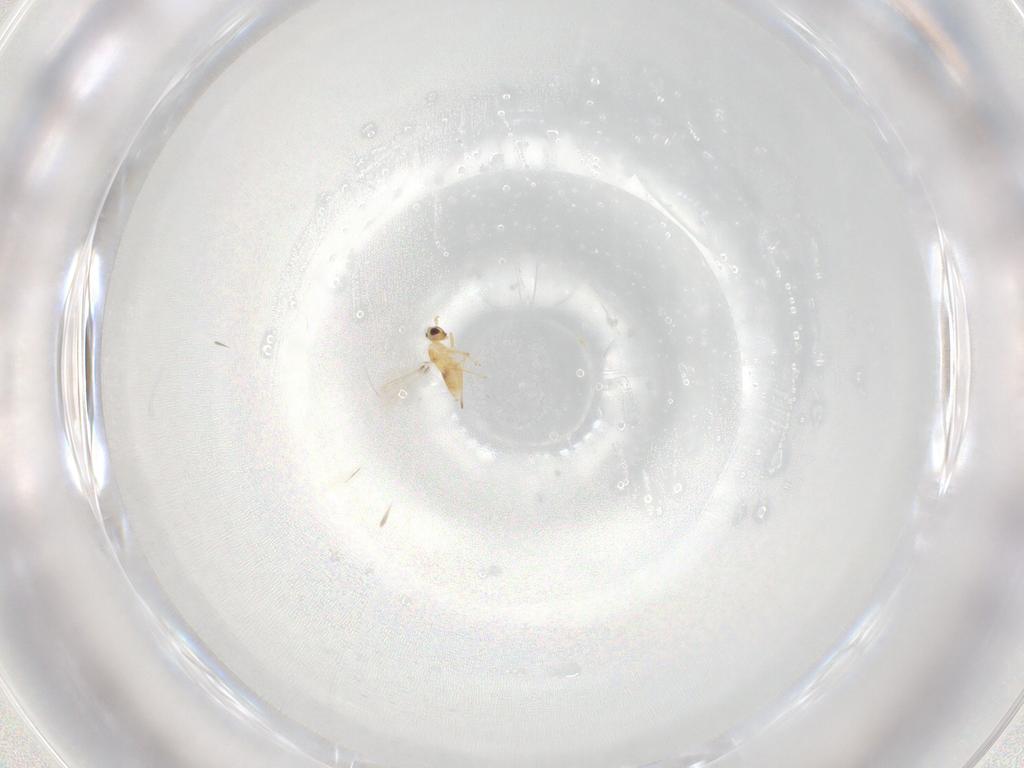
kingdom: Animalia
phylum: Arthropoda
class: Insecta
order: Hymenoptera
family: Mymaridae
